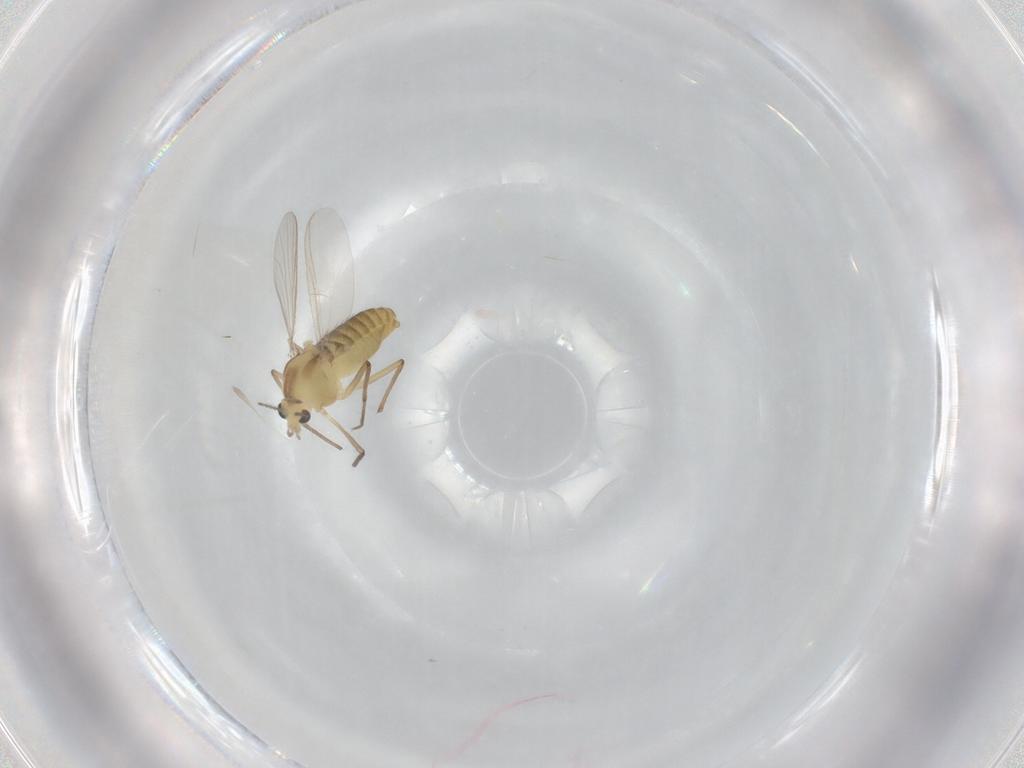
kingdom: Animalia
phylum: Arthropoda
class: Insecta
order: Diptera
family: Chironomidae
